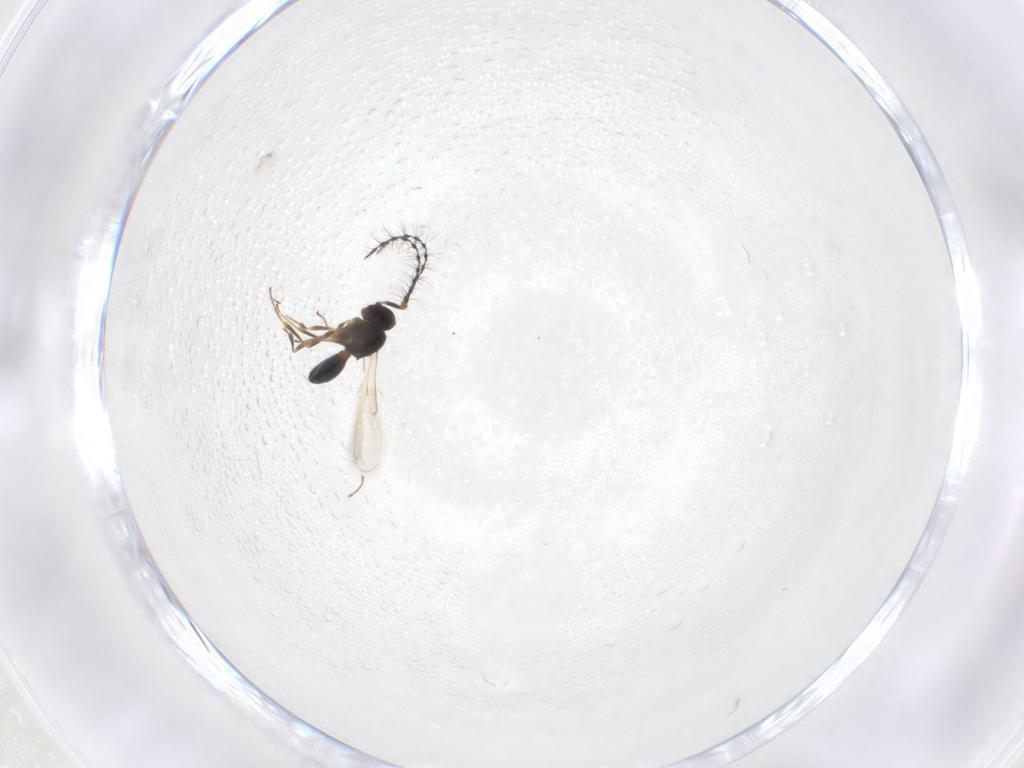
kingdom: Animalia
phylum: Arthropoda
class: Insecta
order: Hymenoptera
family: Scelionidae
